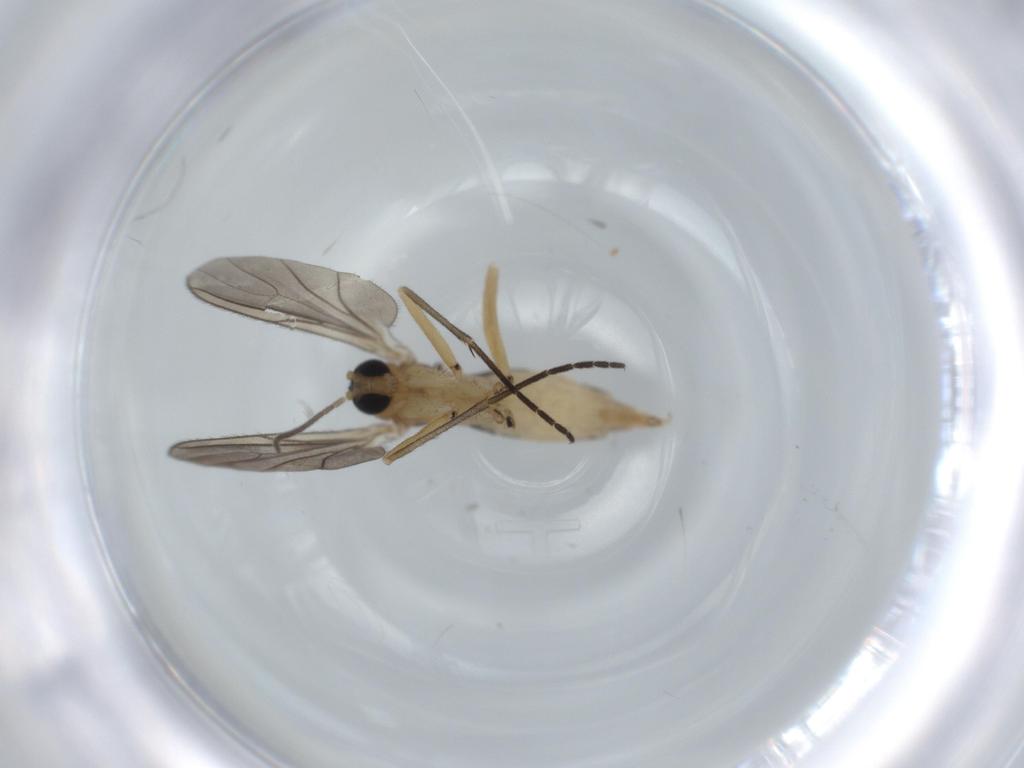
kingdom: Animalia
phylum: Arthropoda
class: Insecta
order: Diptera
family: Sciaridae
